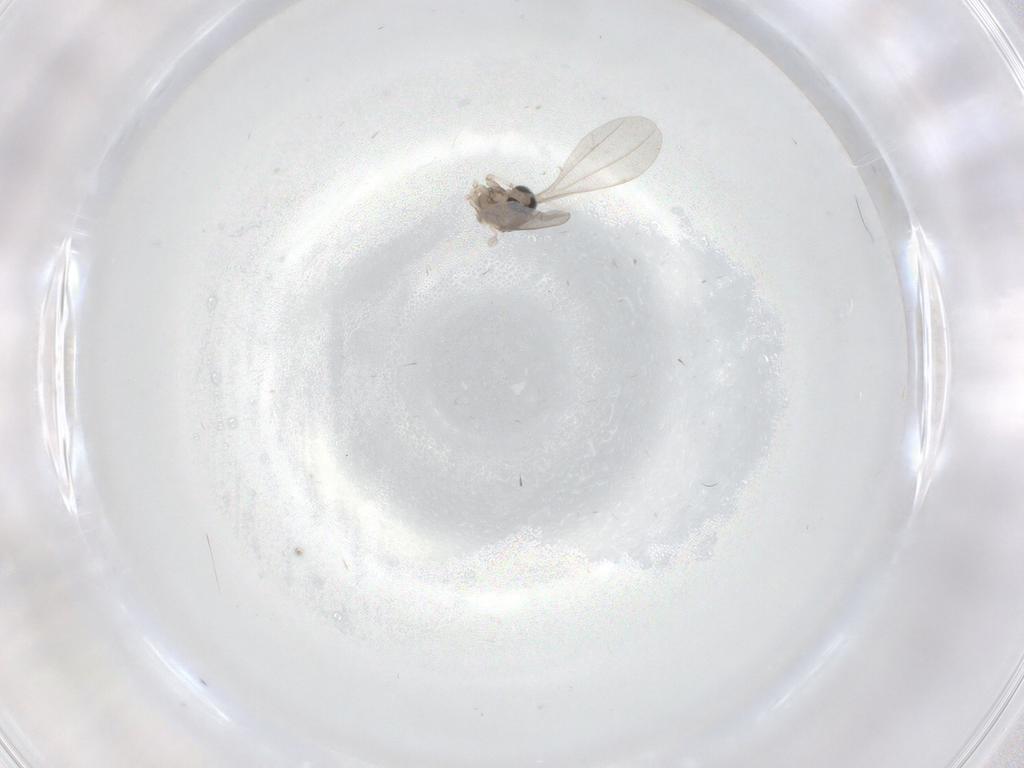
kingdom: Animalia
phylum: Arthropoda
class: Insecta
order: Diptera
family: Cecidomyiidae
